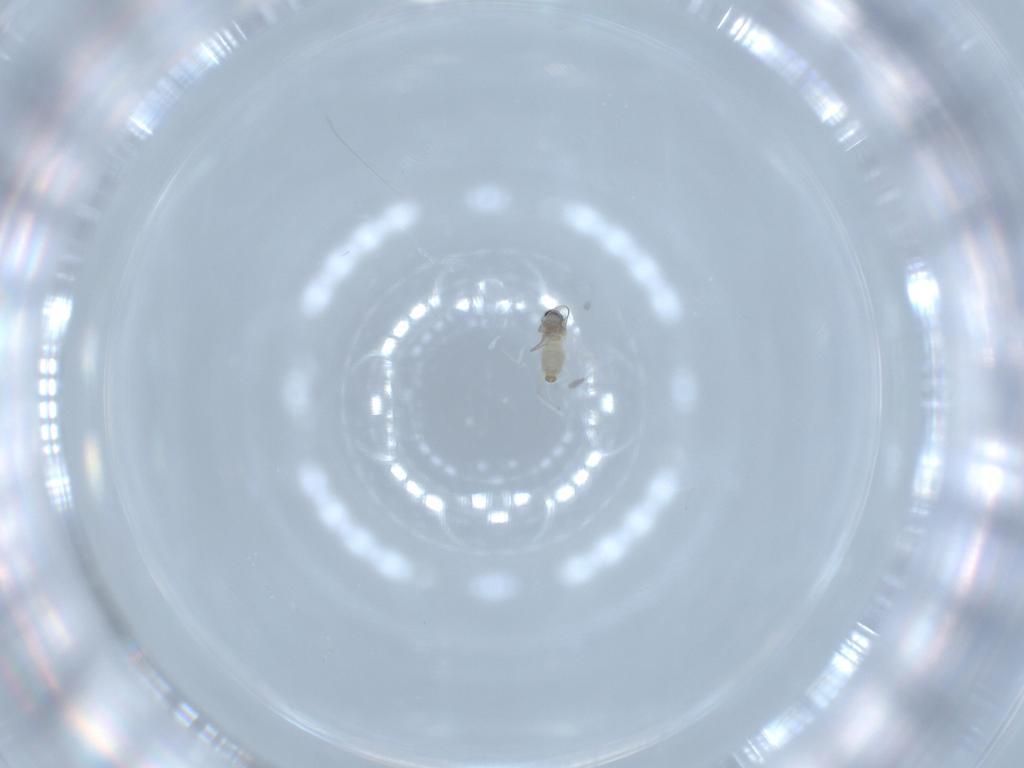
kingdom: Animalia
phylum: Arthropoda
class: Insecta
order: Diptera
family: Cecidomyiidae
